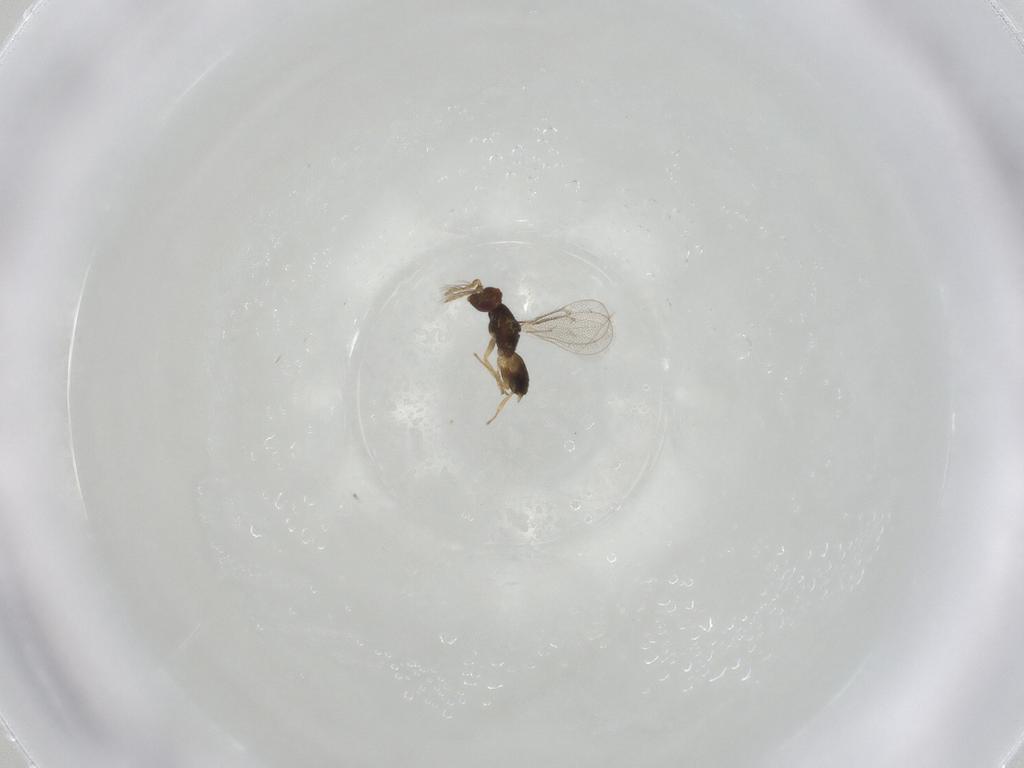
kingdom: Animalia
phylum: Arthropoda
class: Insecta
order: Hymenoptera
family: Eulophidae
